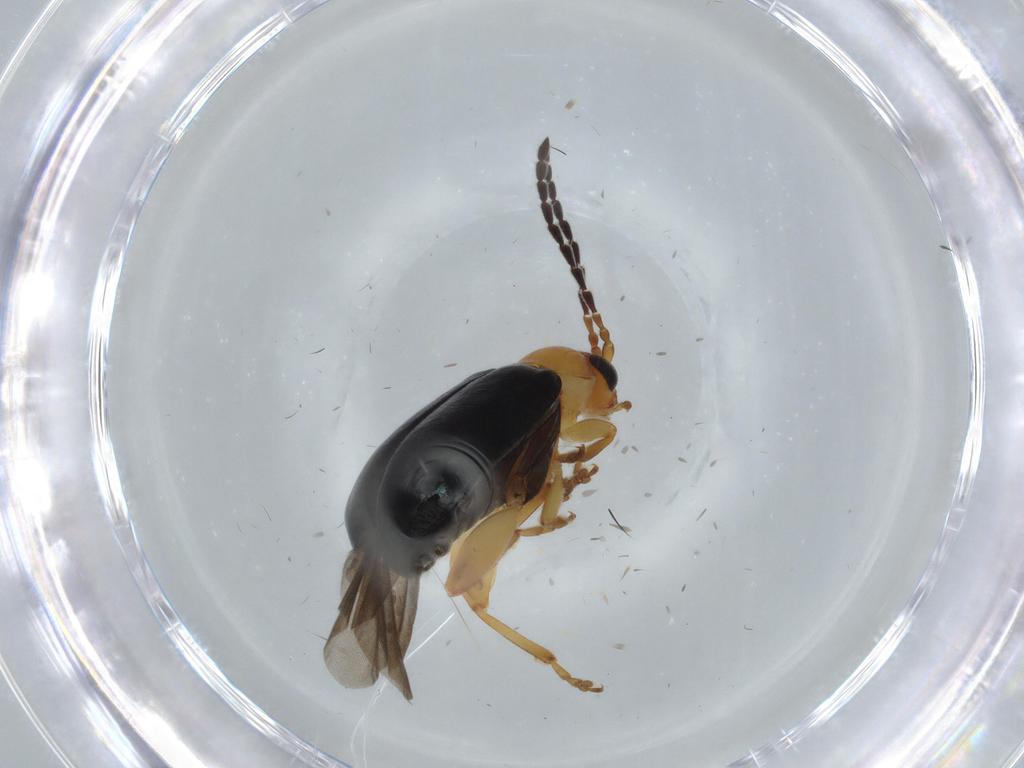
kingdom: Animalia
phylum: Arthropoda
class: Insecta
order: Coleoptera
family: Chrysomelidae
